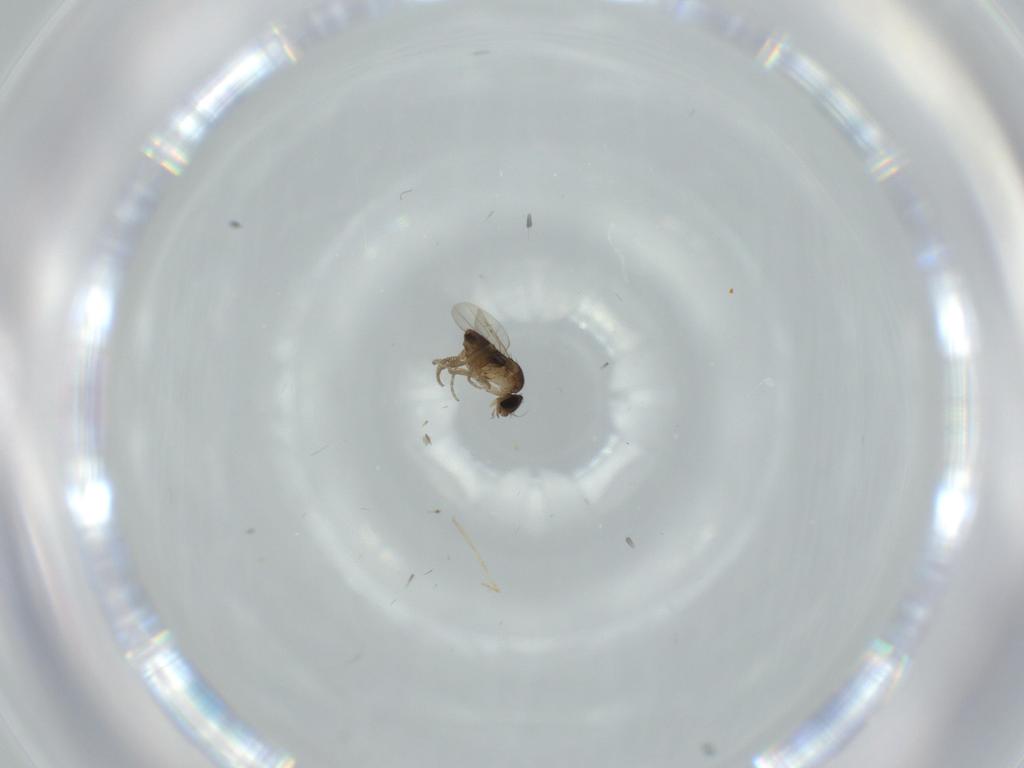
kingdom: Animalia
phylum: Arthropoda
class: Insecta
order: Diptera
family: Milichiidae
